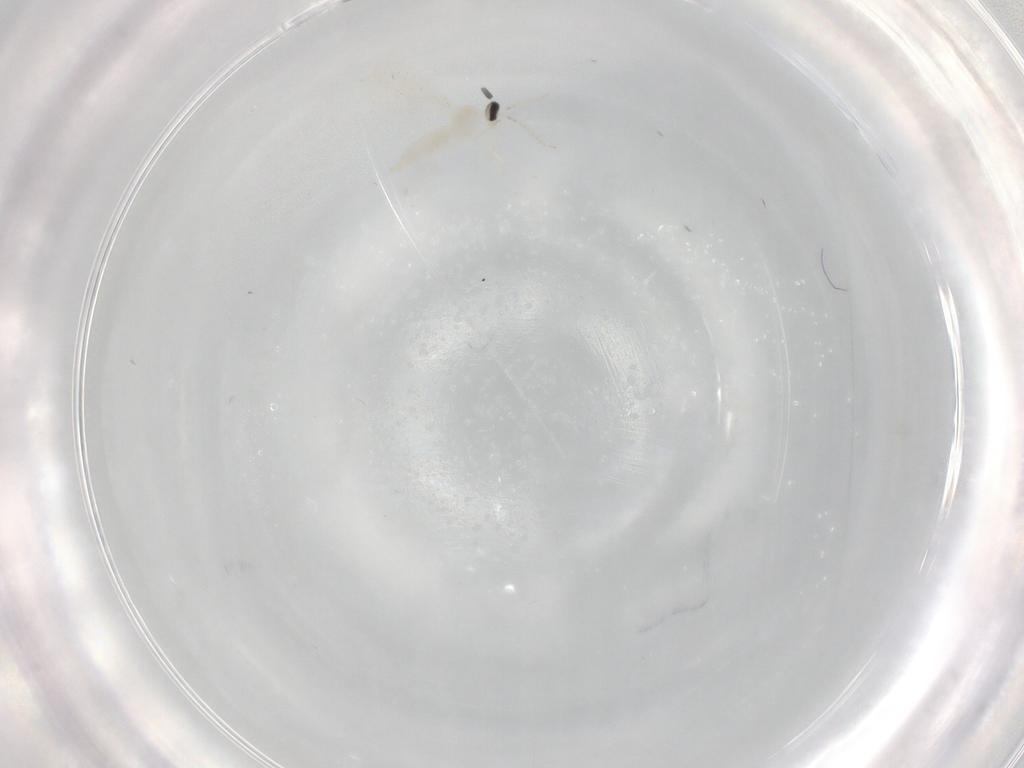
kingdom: Animalia
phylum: Arthropoda
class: Insecta
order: Diptera
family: Cecidomyiidae
